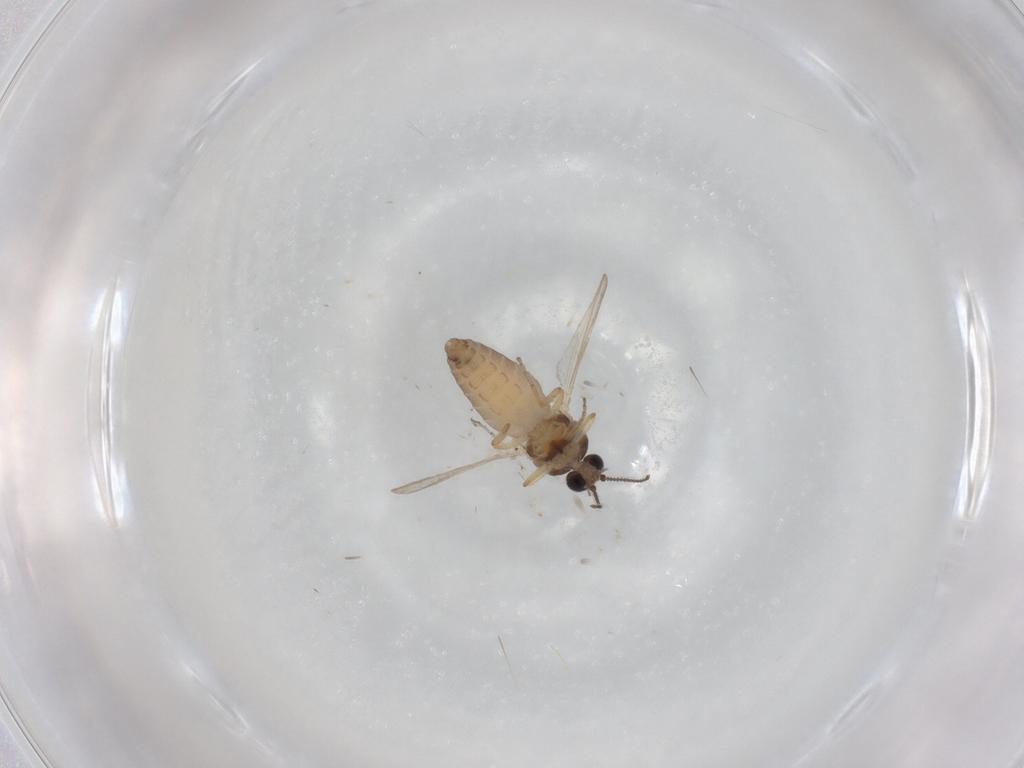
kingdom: Animalia
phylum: Arthropoda
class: Insecta
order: Diptera
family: Ceratopogonidae
